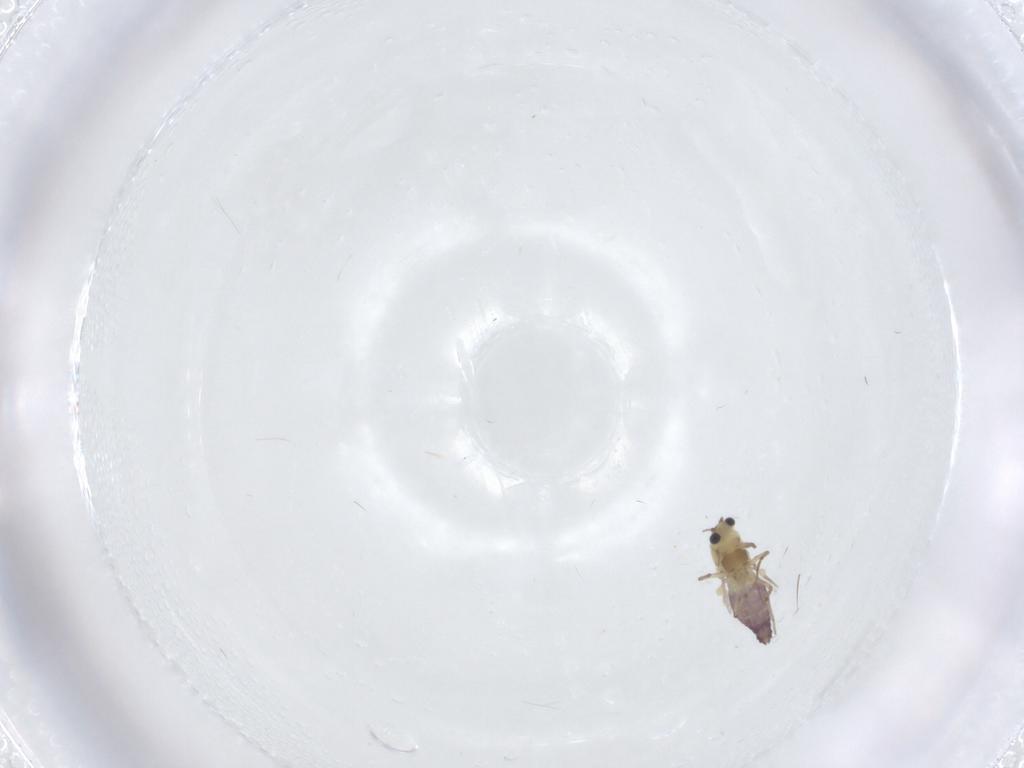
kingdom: Animalia
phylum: Arthropoda
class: Insecta
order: Diptera
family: Chironomidae
